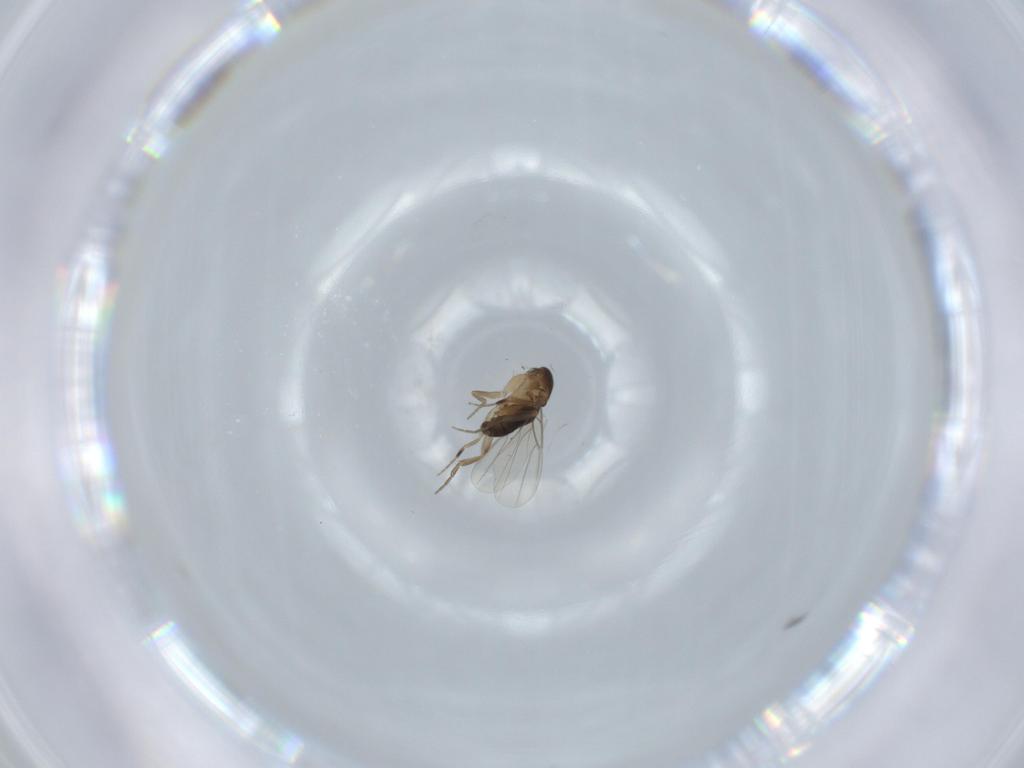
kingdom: Animalia
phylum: Arthropoda
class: Insecta
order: Diptera
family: Phoridae
